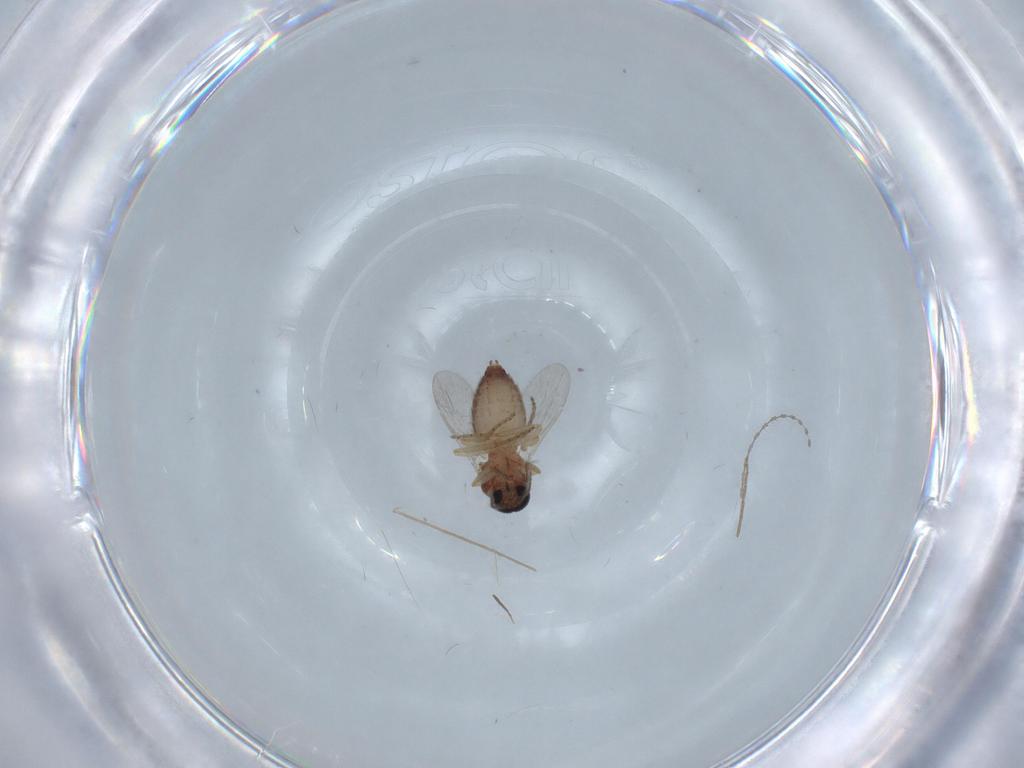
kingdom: Animalia
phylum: Arthropoda
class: Insecta
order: Diptera
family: Ceratopogonidae
